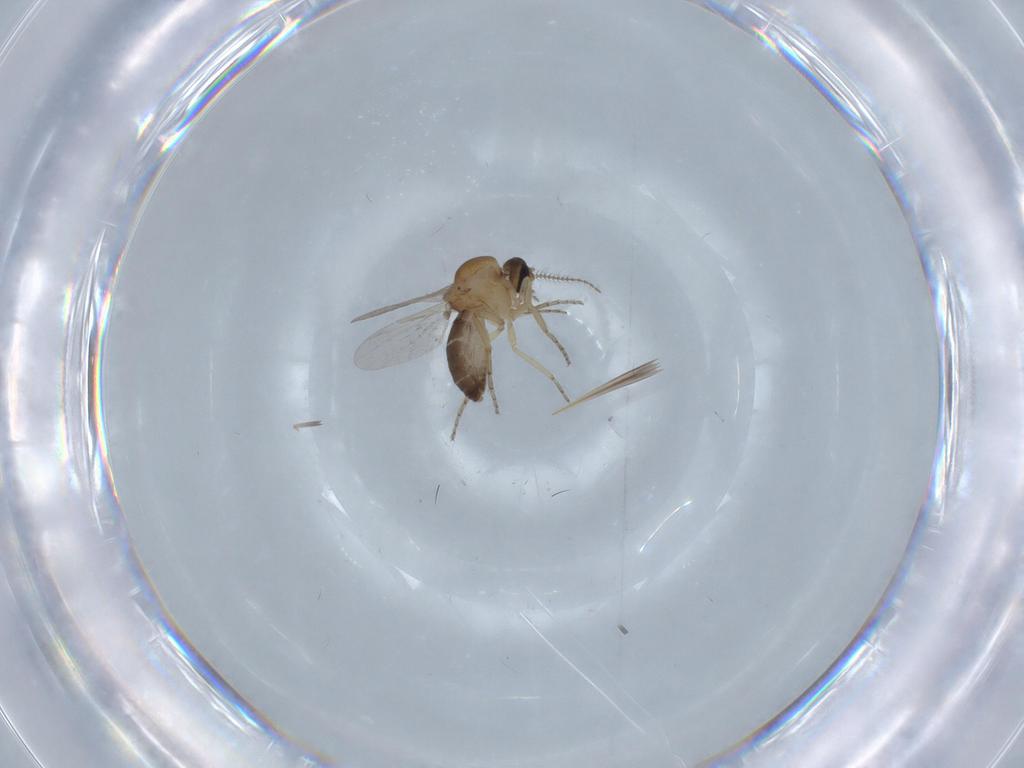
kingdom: Animalia
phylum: Arthropoda
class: Insecta
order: Diptera
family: Ceratopogonidae
